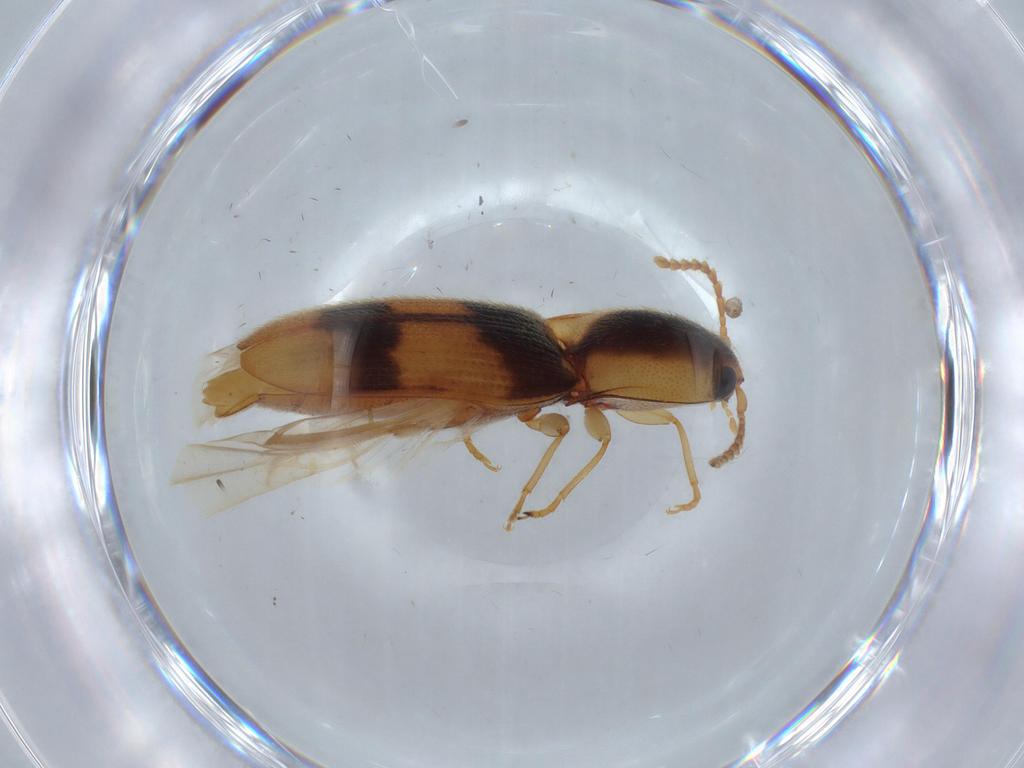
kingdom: Animalia
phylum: Arthropoda
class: Insecta
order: Coleoptera
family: Elateridae
